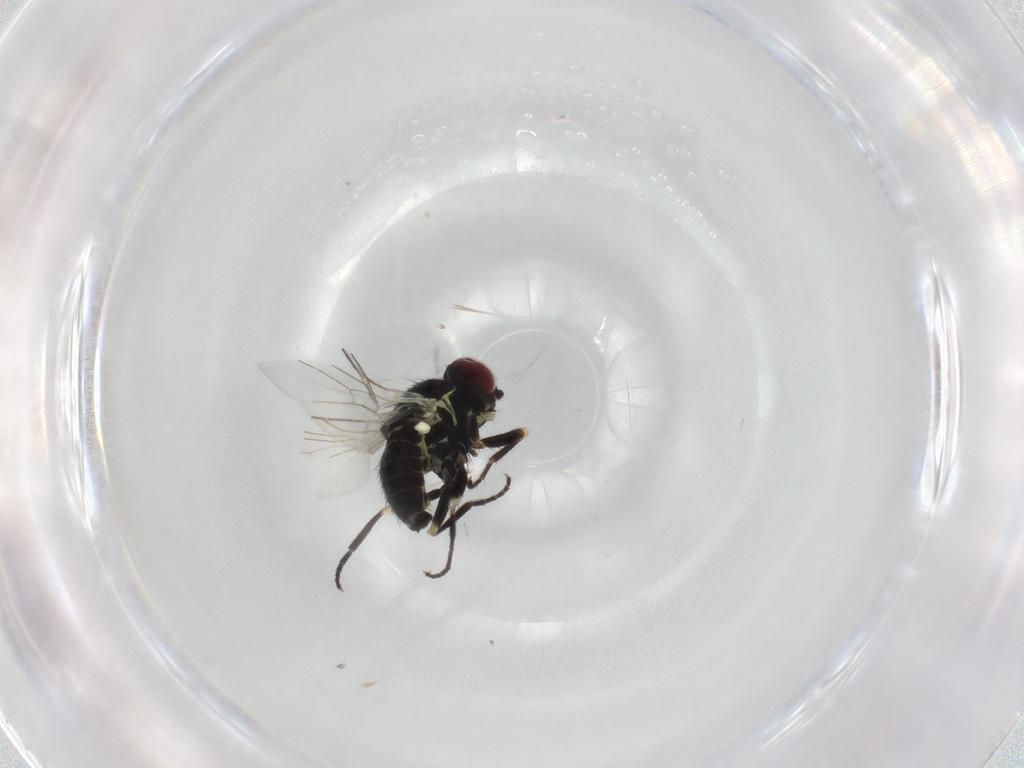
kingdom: Animalia
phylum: Arthropoda
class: Insecta
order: Diptera
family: Agromyzidae
